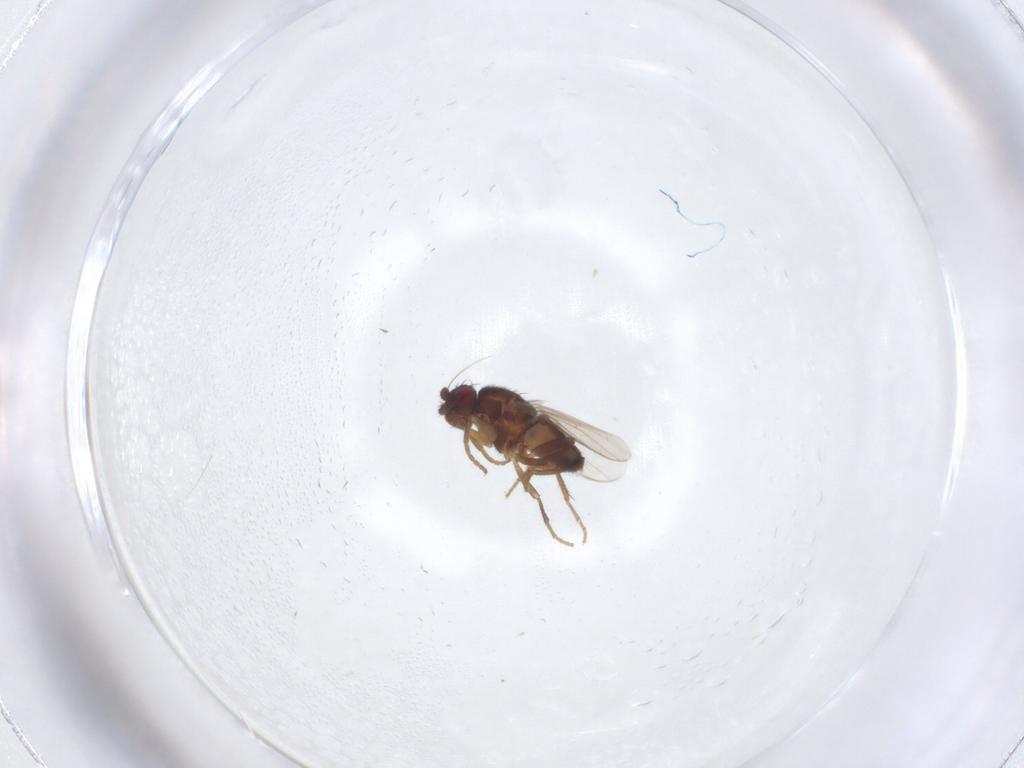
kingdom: Animalia
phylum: Arthropoda
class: Insecta
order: Diptera
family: Sphaeroceridae
